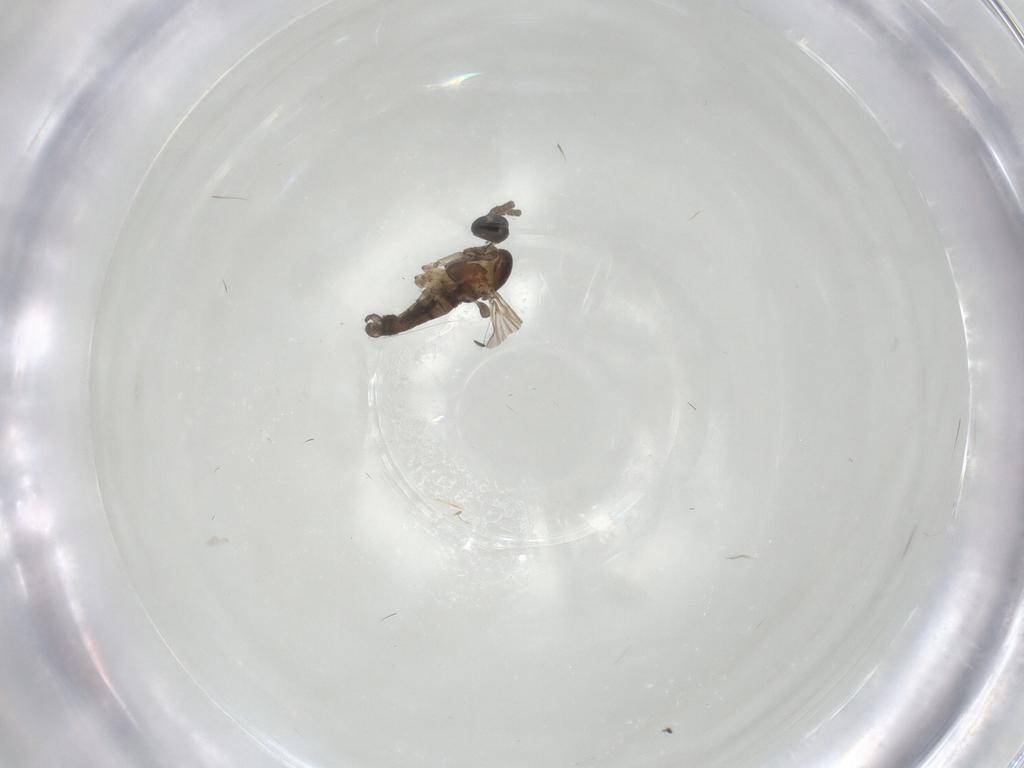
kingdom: Animalia
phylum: Arthropoda
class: Insecta
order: Diptera
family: Sciaridae
